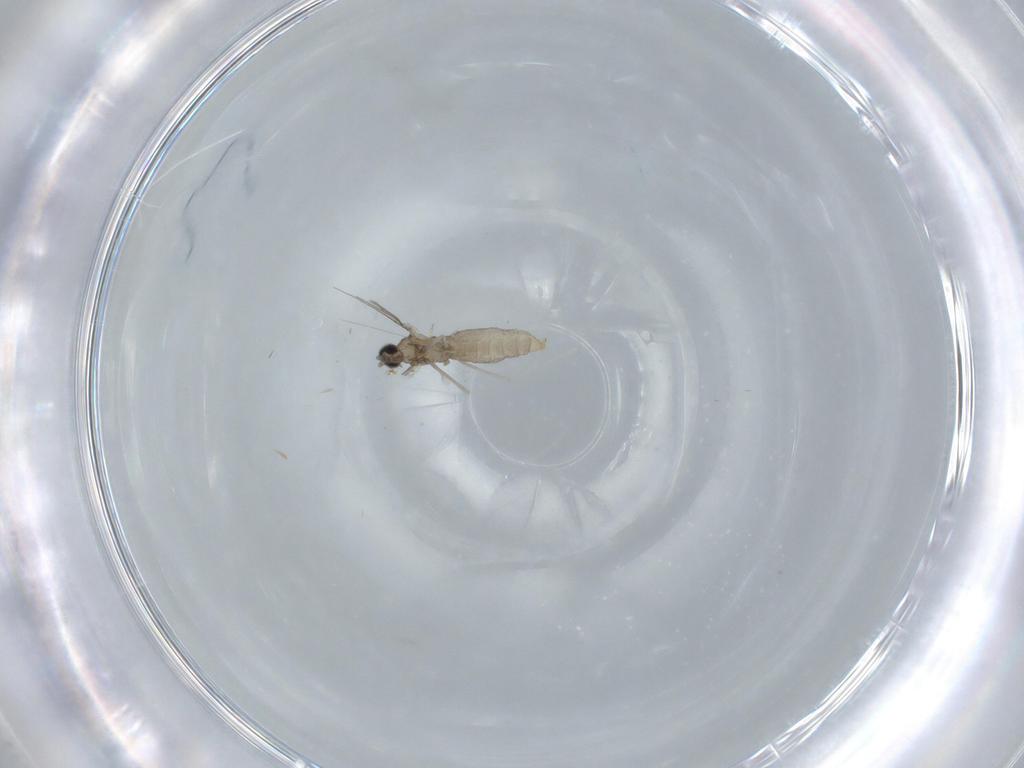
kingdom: Animalia
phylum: Arthropoda
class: Insecta
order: Diptera
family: Cecidomyiidae
